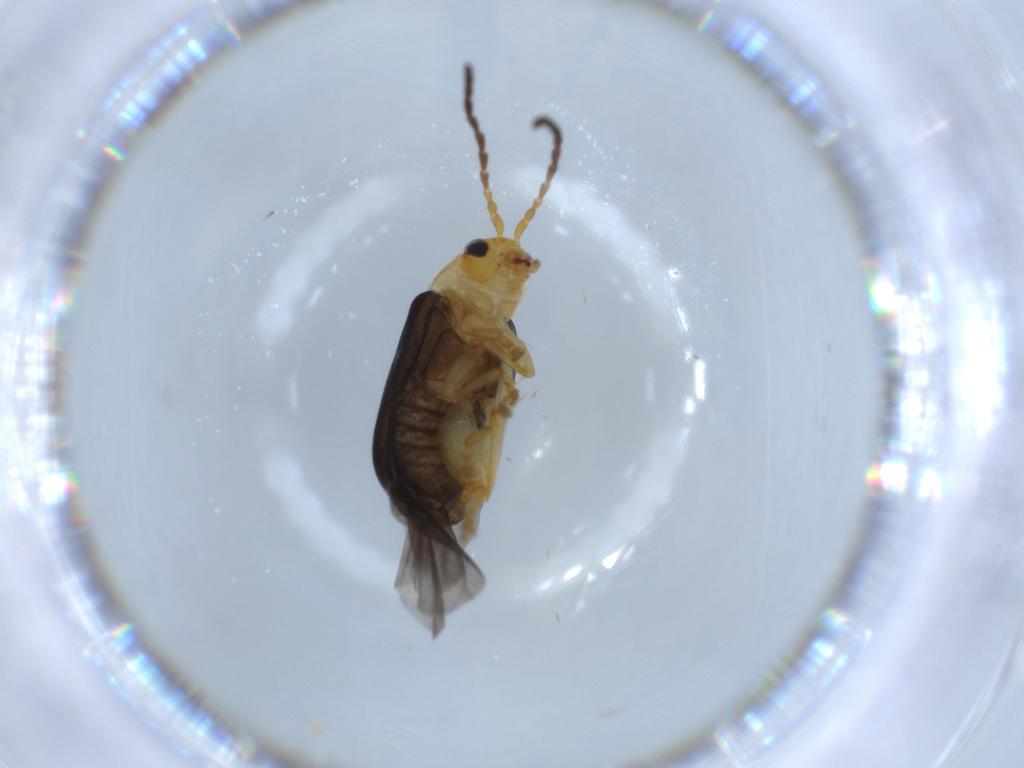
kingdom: Animalia
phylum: Arthropoda
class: Insecta
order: Coleoptera
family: Chrysomelidae
